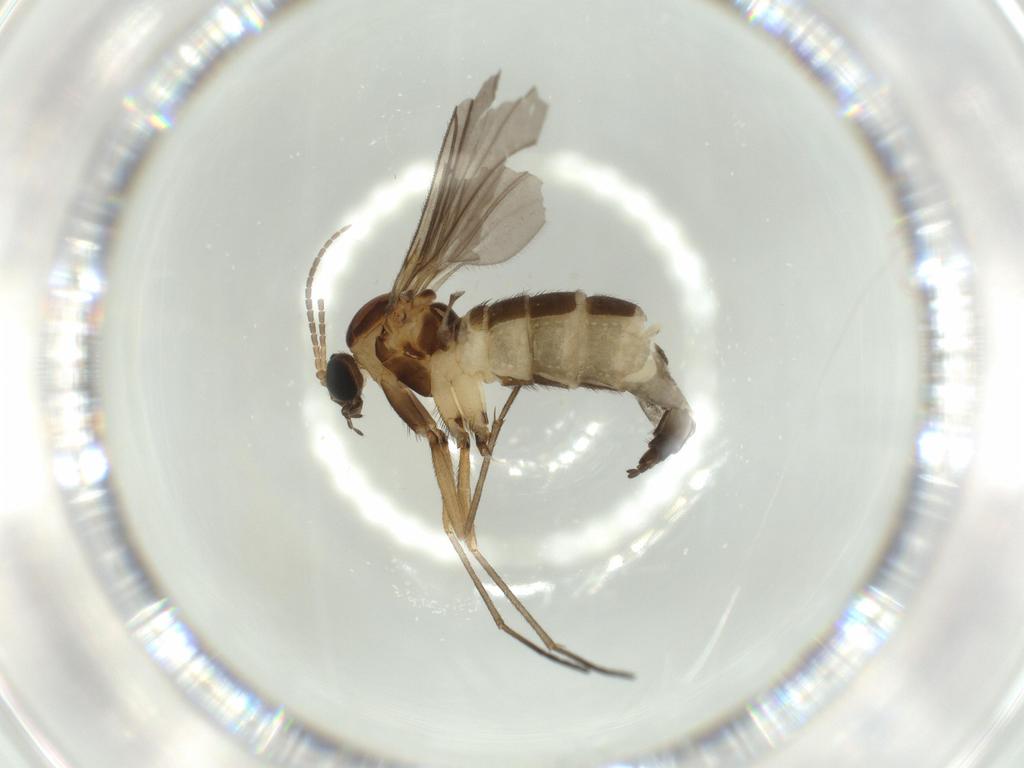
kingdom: Animalia
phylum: Arthropoda
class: Insecta
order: Diptera
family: Sciaridae
